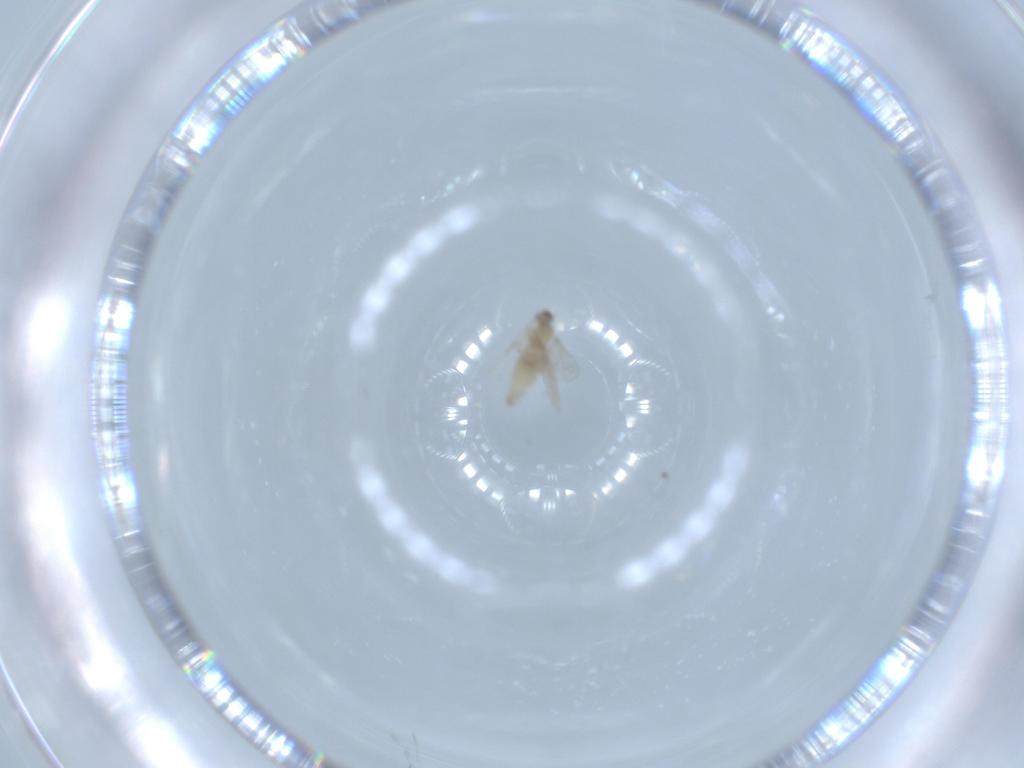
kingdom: Animalia
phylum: Arthropoda
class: Insecta
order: Diptera
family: Cecidomyiidae
